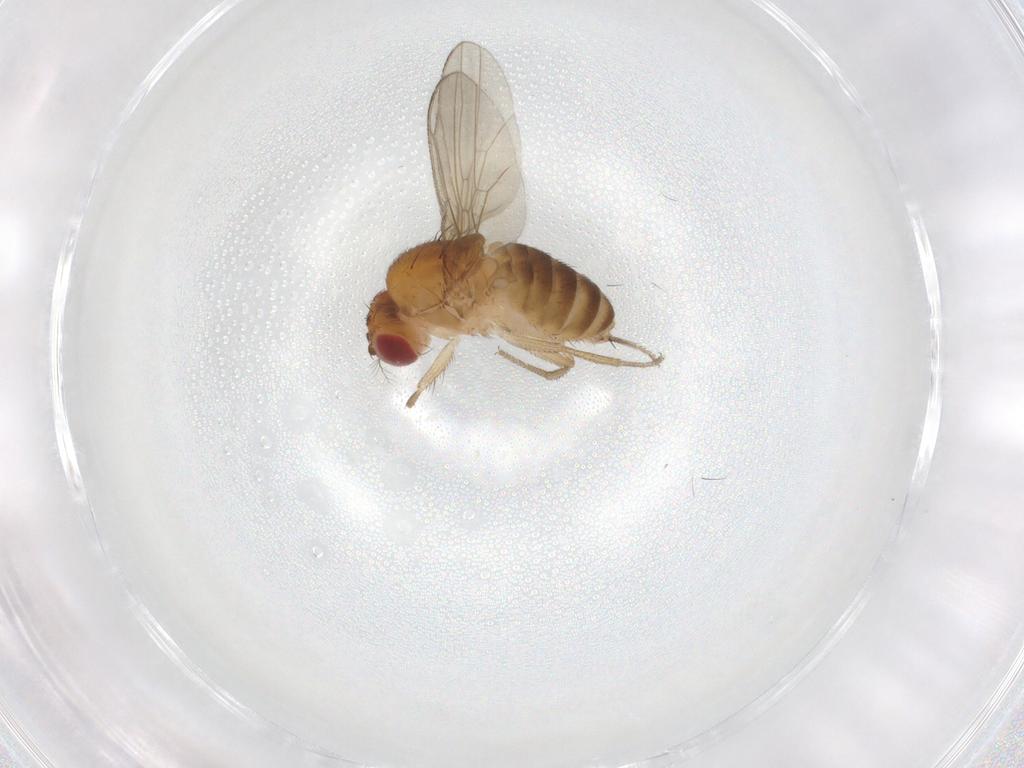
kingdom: Animalia
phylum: Arthropoda
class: Insecta
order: Diptera
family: Drosophilidae
